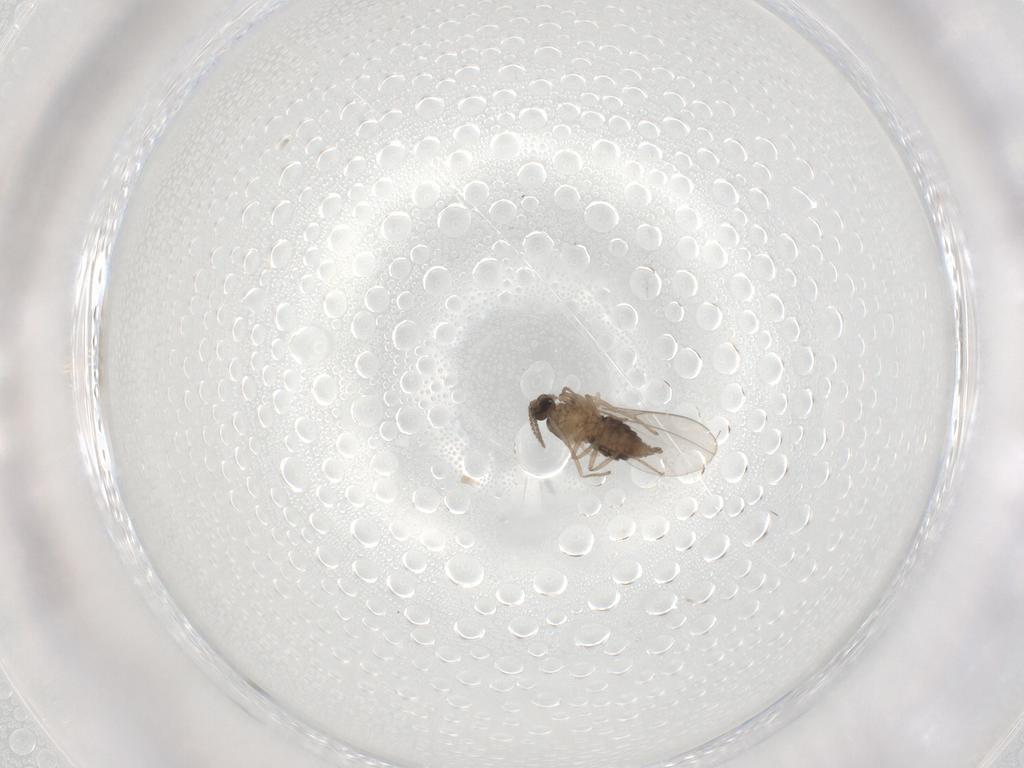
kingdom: Animalia
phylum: Arthropoda
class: Insecta
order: Diptera
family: Cecidomyiidae
